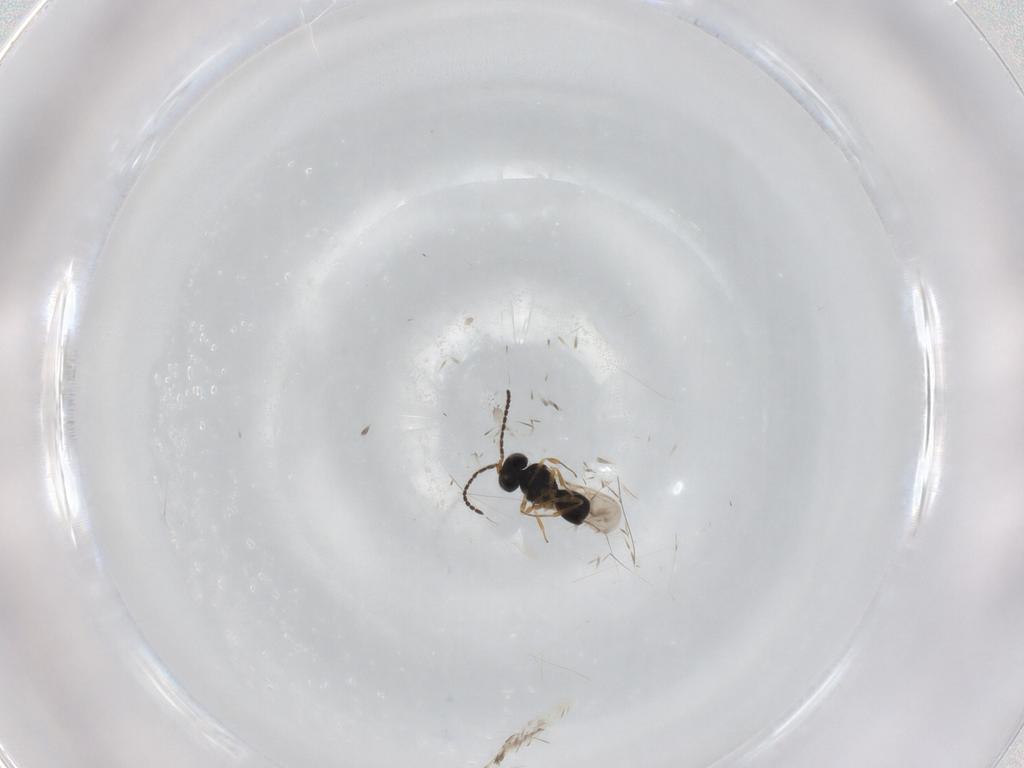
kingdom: Animalia
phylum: Arthropoda
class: Insecta
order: Hymenoptera
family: Scelionidae
